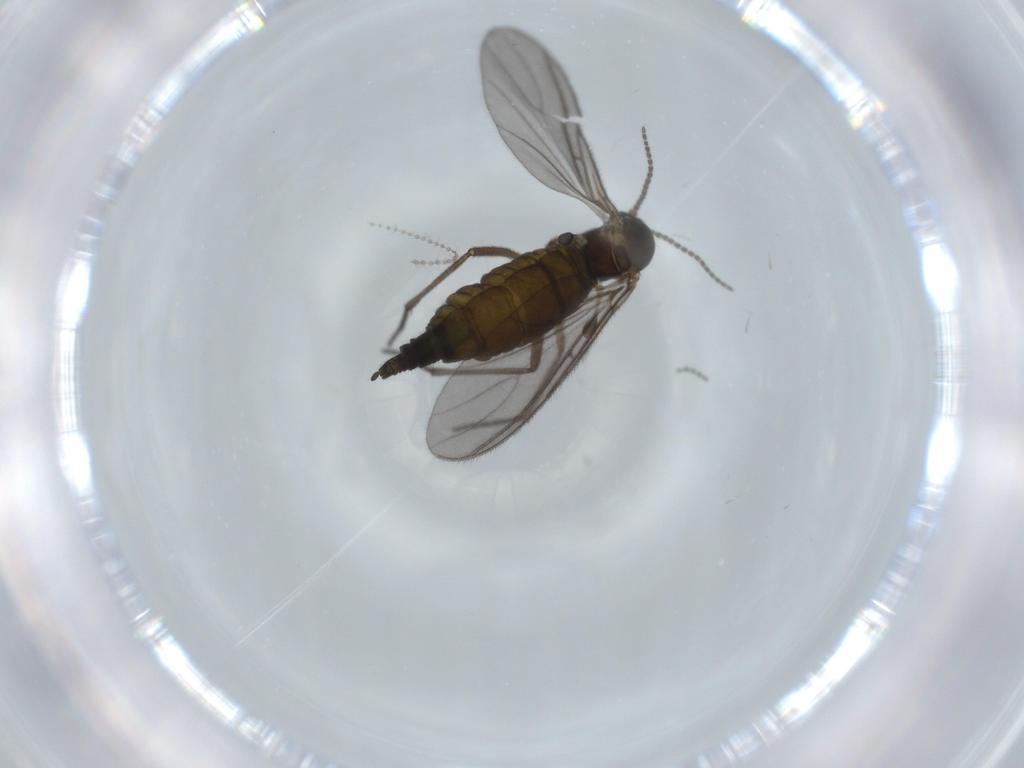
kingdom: Animalia
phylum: Arthropoda
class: Insecta
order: Diptera
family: Sciaridae
